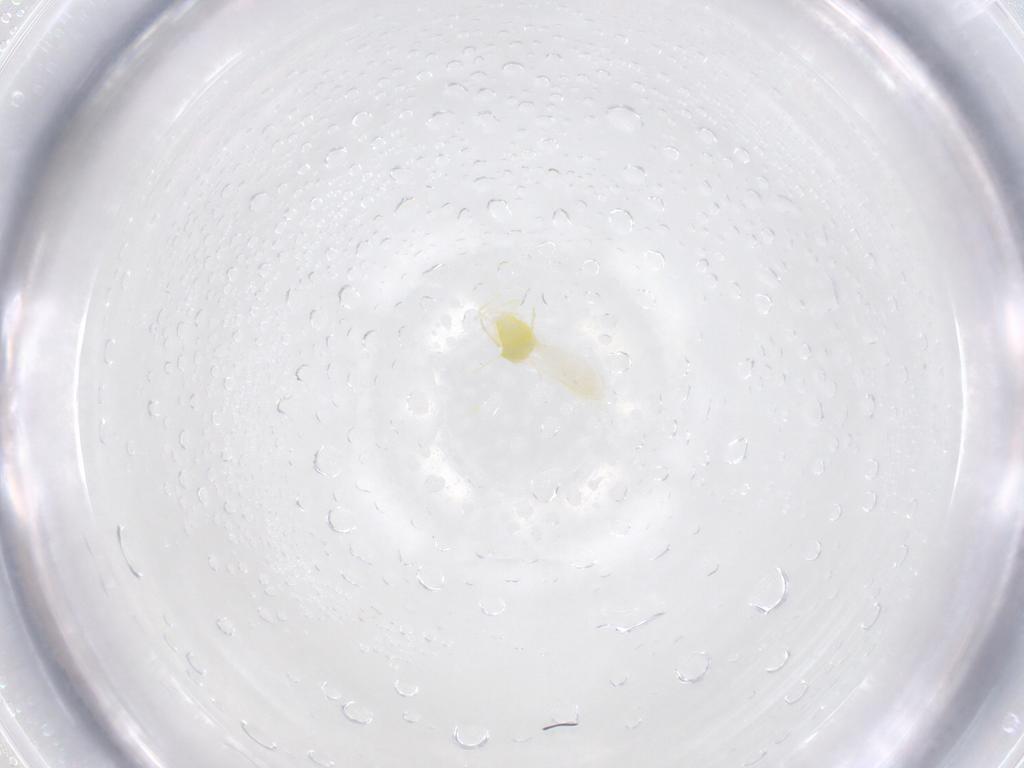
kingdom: Animalia
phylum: Arthropoda
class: Insecta
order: Hemiptera
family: Aleyrodidae
